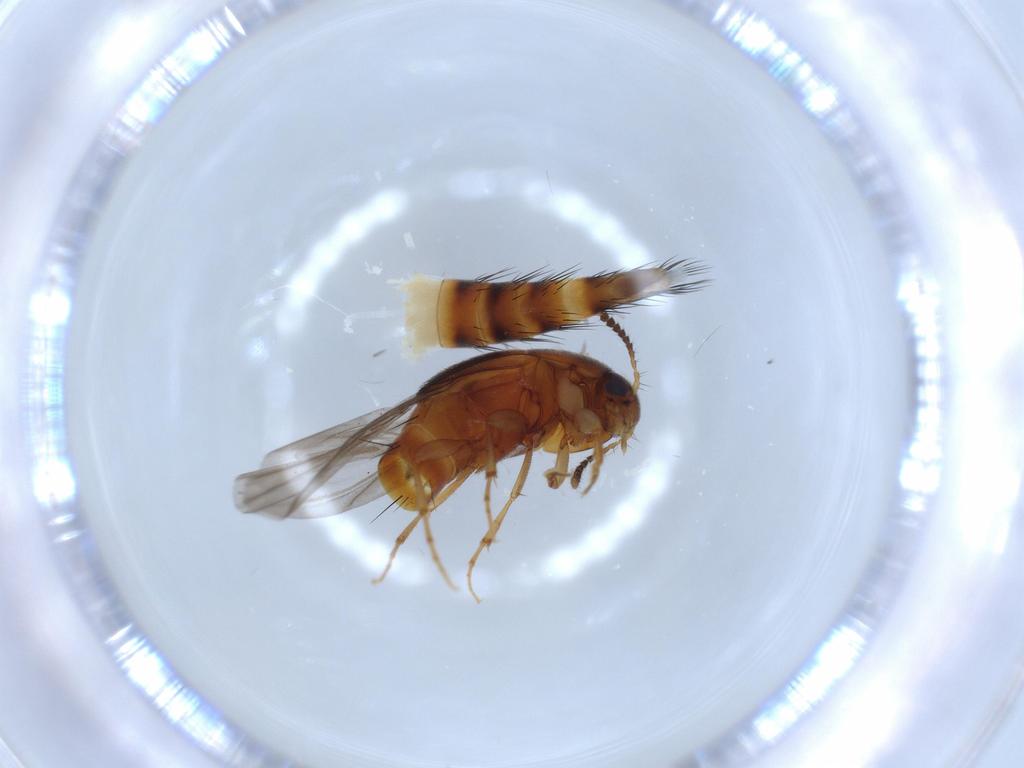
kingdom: Animalia
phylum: Arthropoda
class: Insecta
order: Coleoptera
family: Staphylinidae
